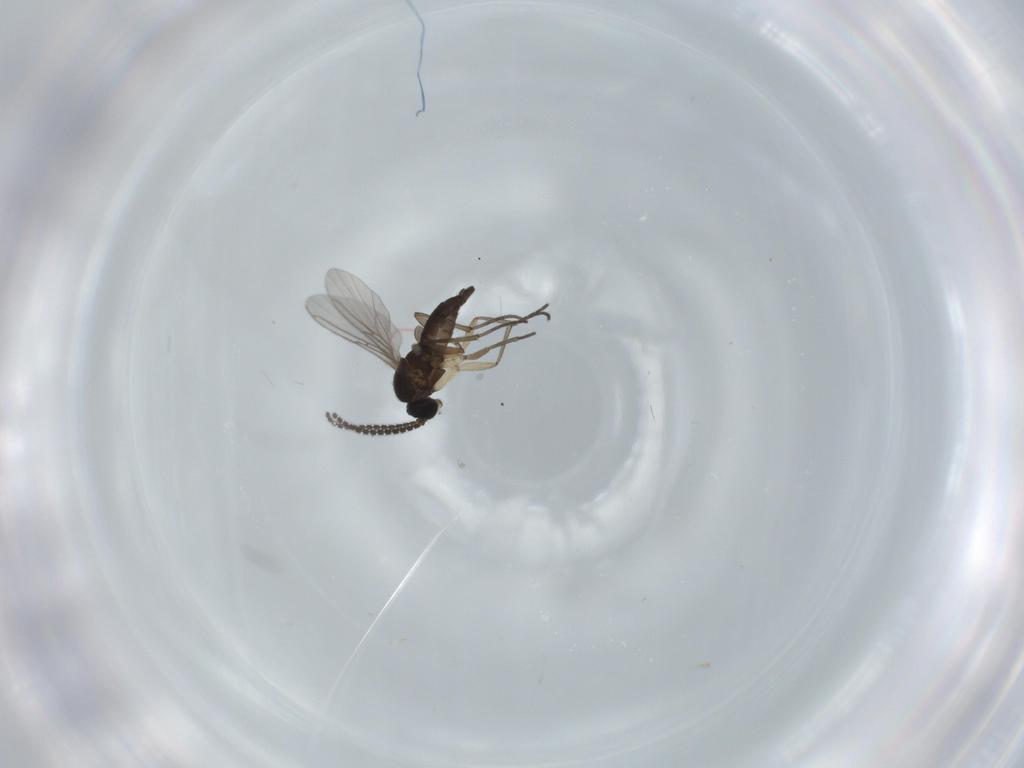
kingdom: Animalia
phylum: Arthropoda
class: Insecta
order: Diptera
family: Sciaridae
